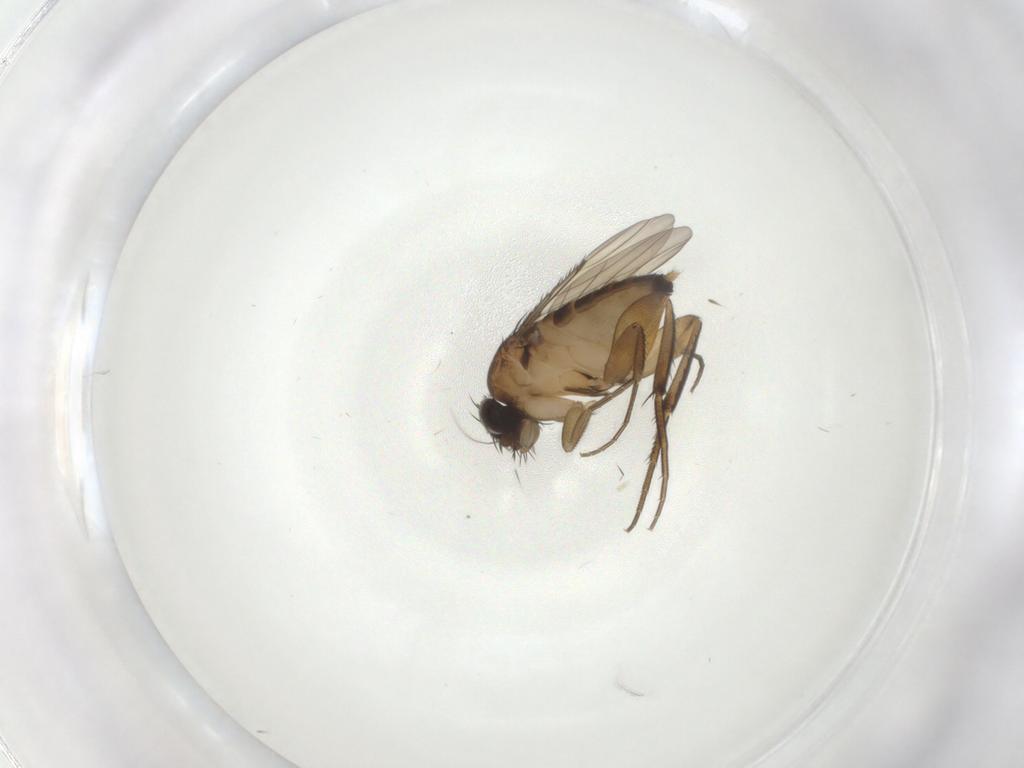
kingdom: Animalia
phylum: Arthropoda
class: Insecta
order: Diptera
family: Phoridae
